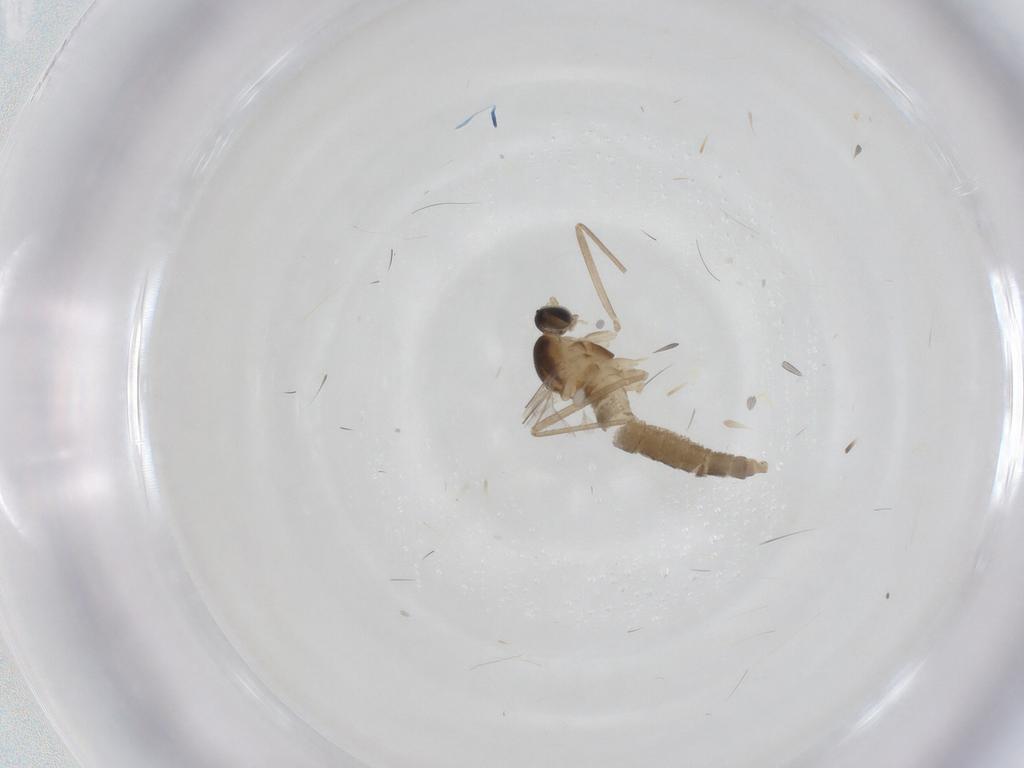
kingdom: Animalia
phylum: Arthropoda
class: Insecta
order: Diptera
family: Cecidomyiidae
